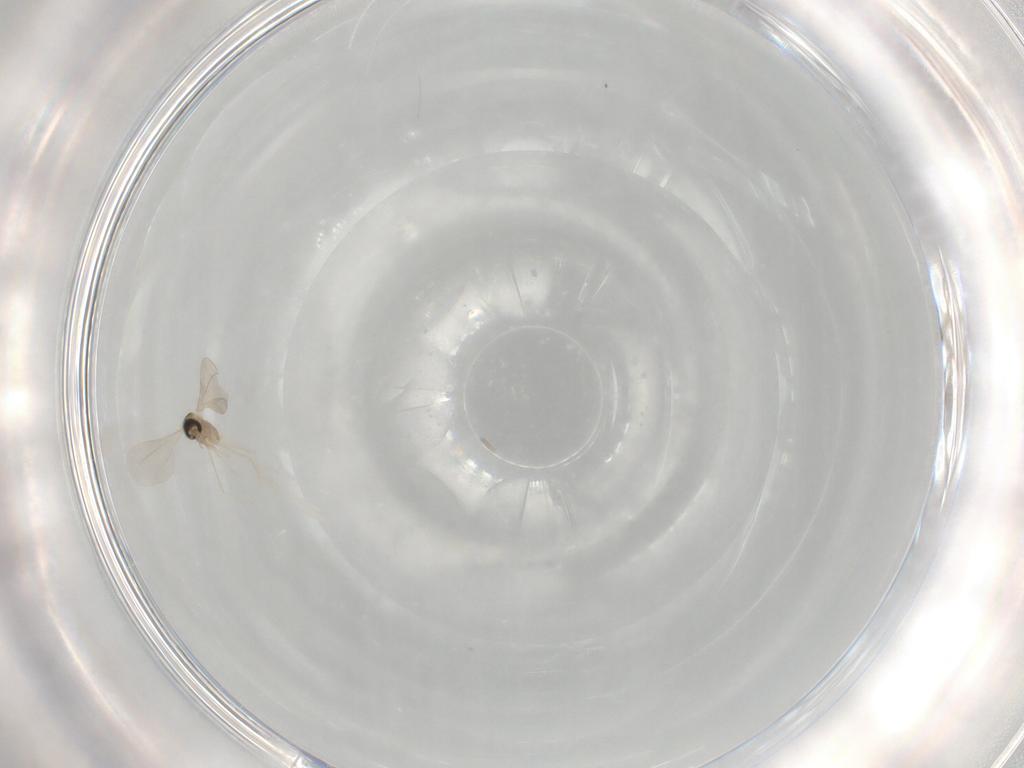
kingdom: Animalia
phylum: Arthropoda
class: Insecta
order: Diptera
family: Cecidomyiidae
